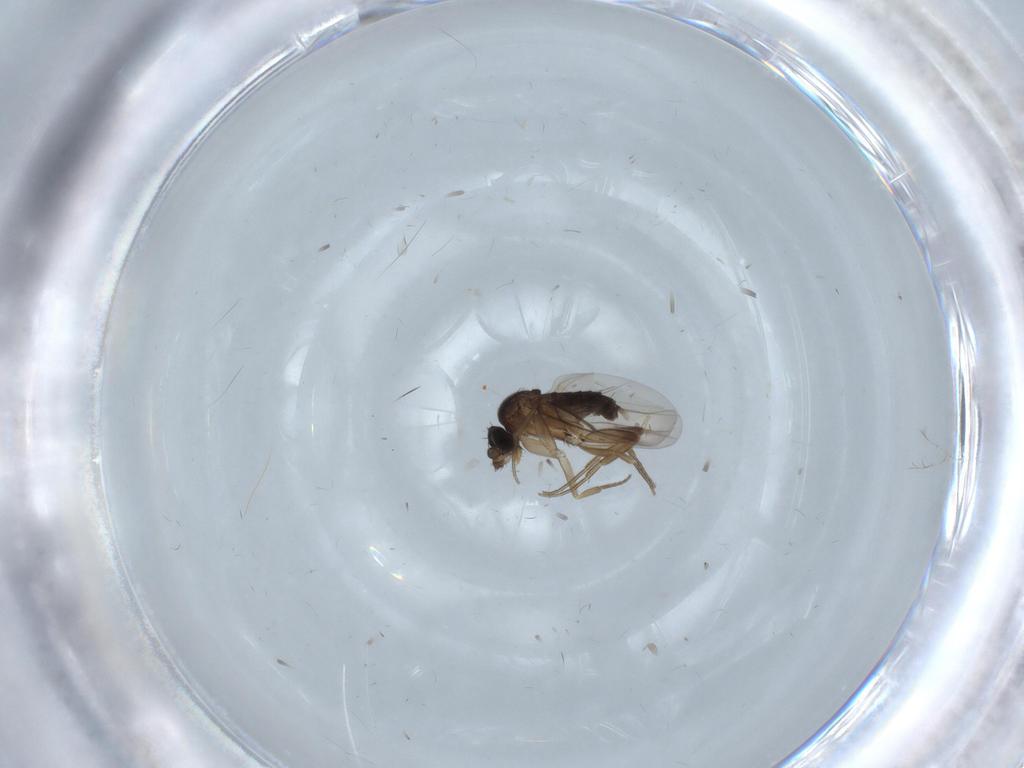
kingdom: Animalia
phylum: Arthropoda
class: Insecta
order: Diptera
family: Phoridae
